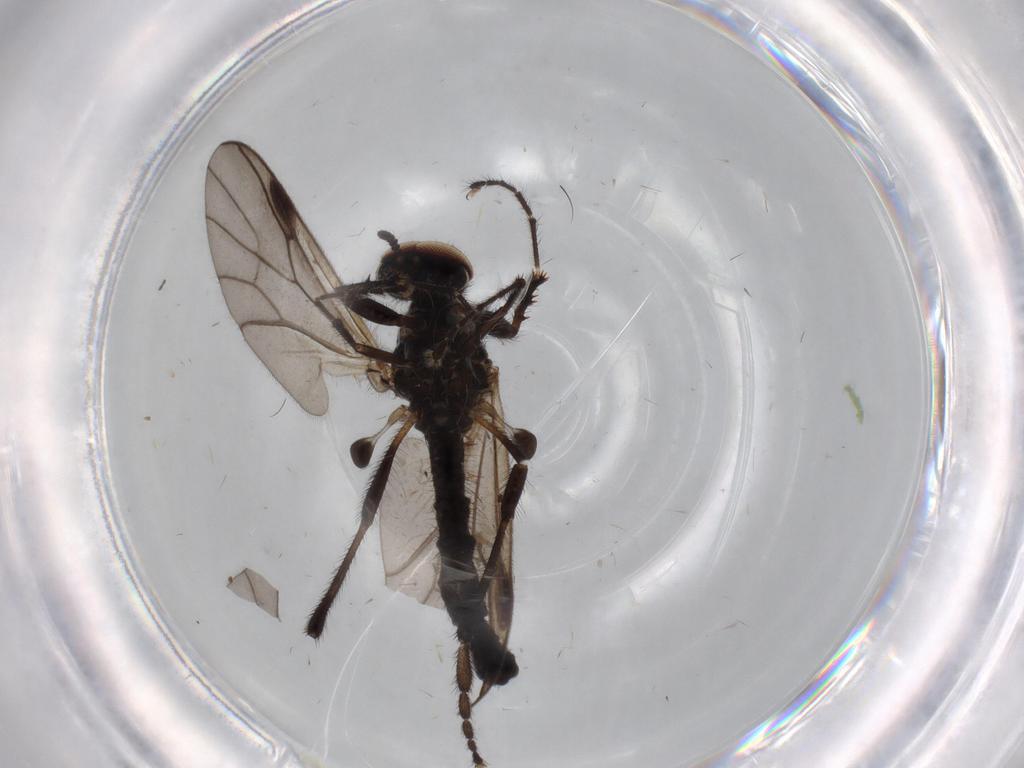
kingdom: Animalia
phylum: Arthropoda
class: Insecta
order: Diptera
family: Bibionidae
